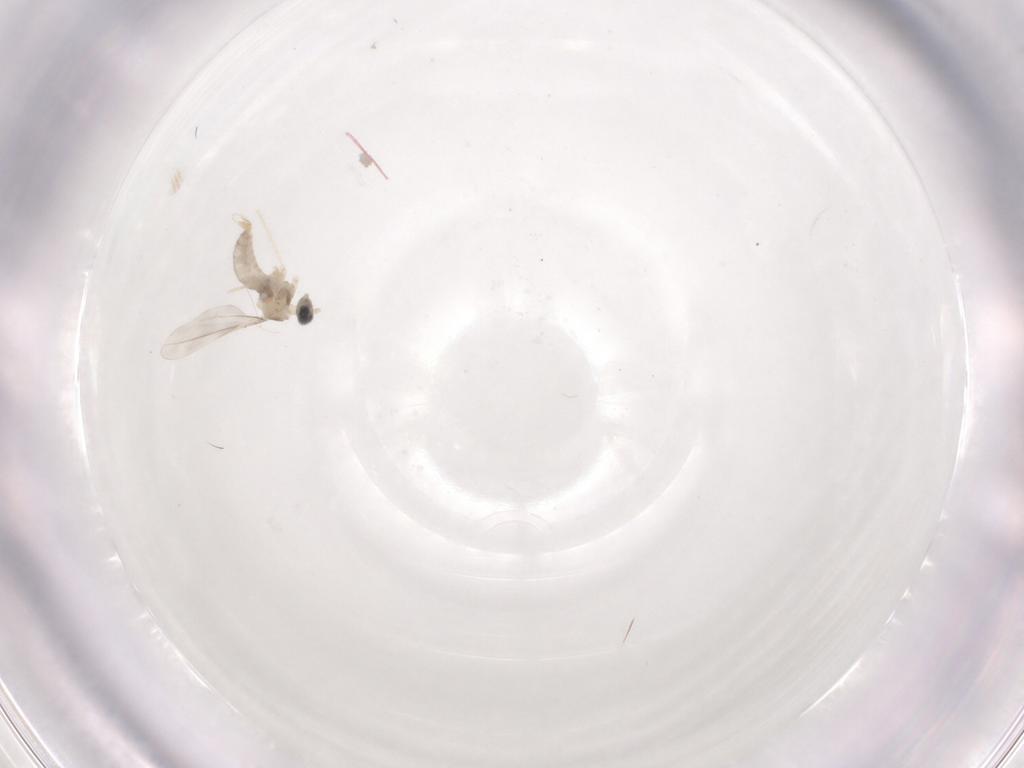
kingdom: Animalia
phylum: Arthropoda
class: Insecta
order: Diptera
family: Cecidomyiidae
